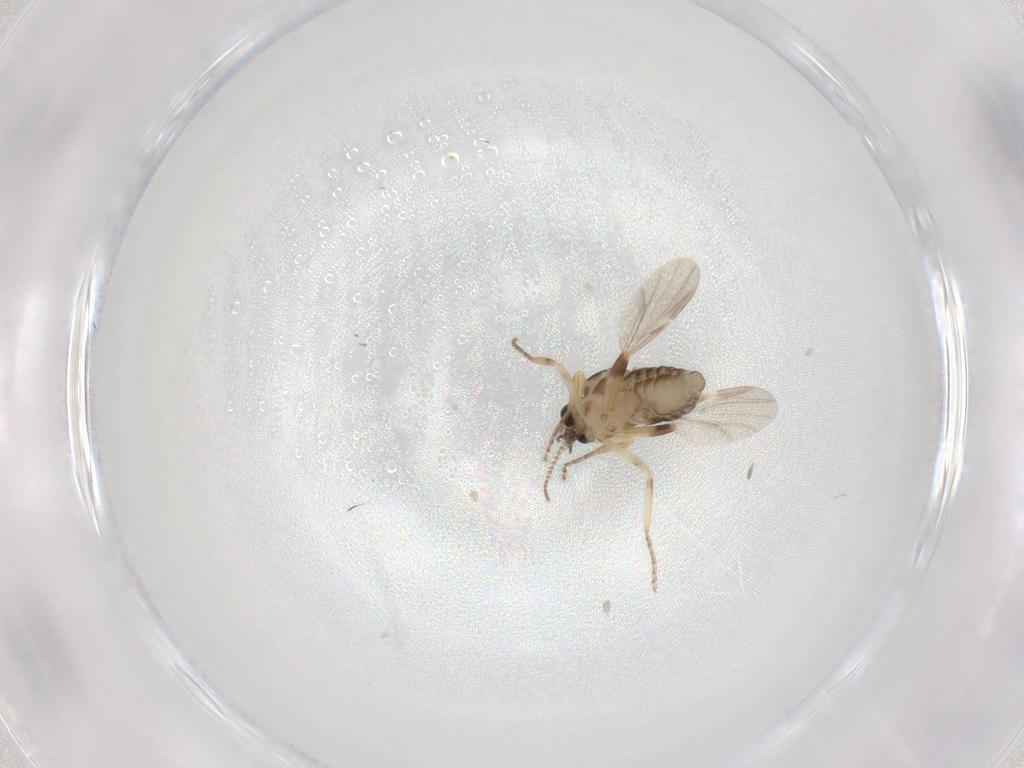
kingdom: Animalia
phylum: Arthropoda
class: Insecta
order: Diptera
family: Ceratopogonidae
